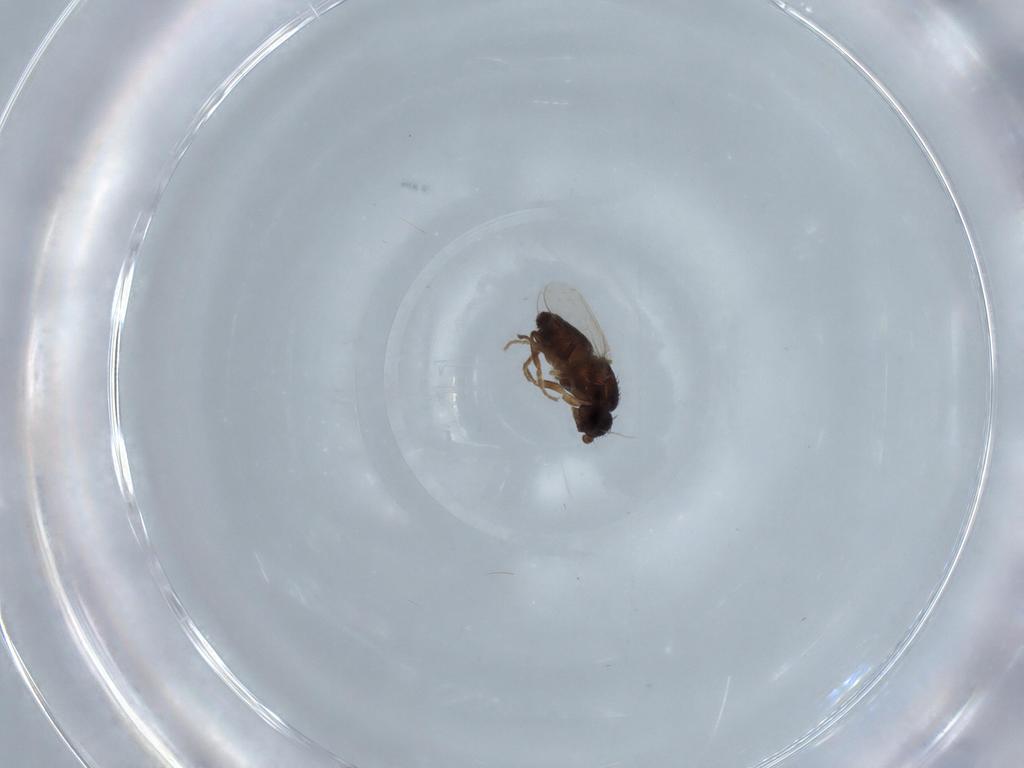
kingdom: Animalia
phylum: Arthropoda
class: Insecta
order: Diptera
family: Sphaeroceridae
